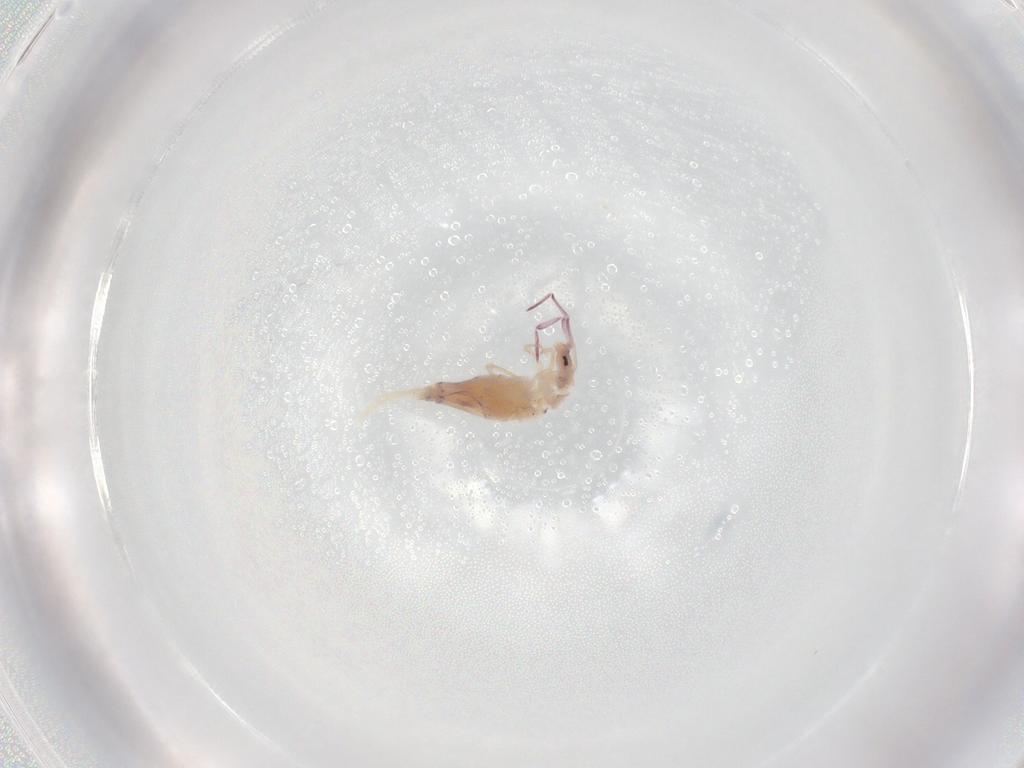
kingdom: Animalia
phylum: Arthropoda
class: Collembola
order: Entomobryomorpha
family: Entomobryidae
